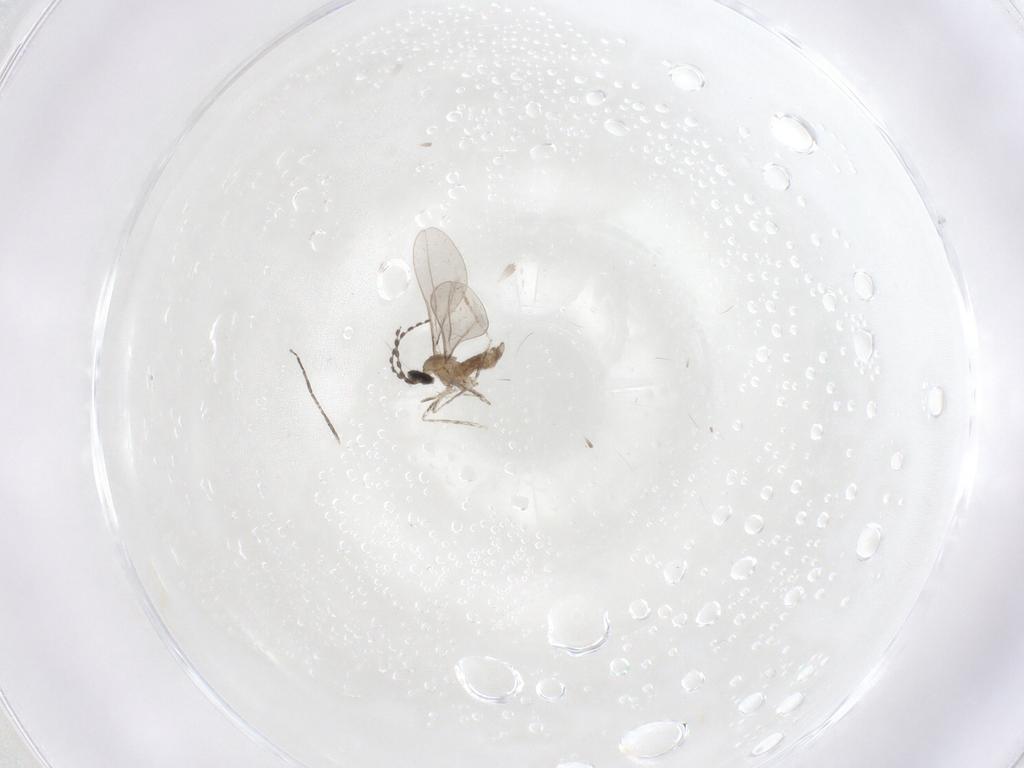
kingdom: Animalia
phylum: Arthropoda
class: Insecta
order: Diptera
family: Cecidomyiidae
